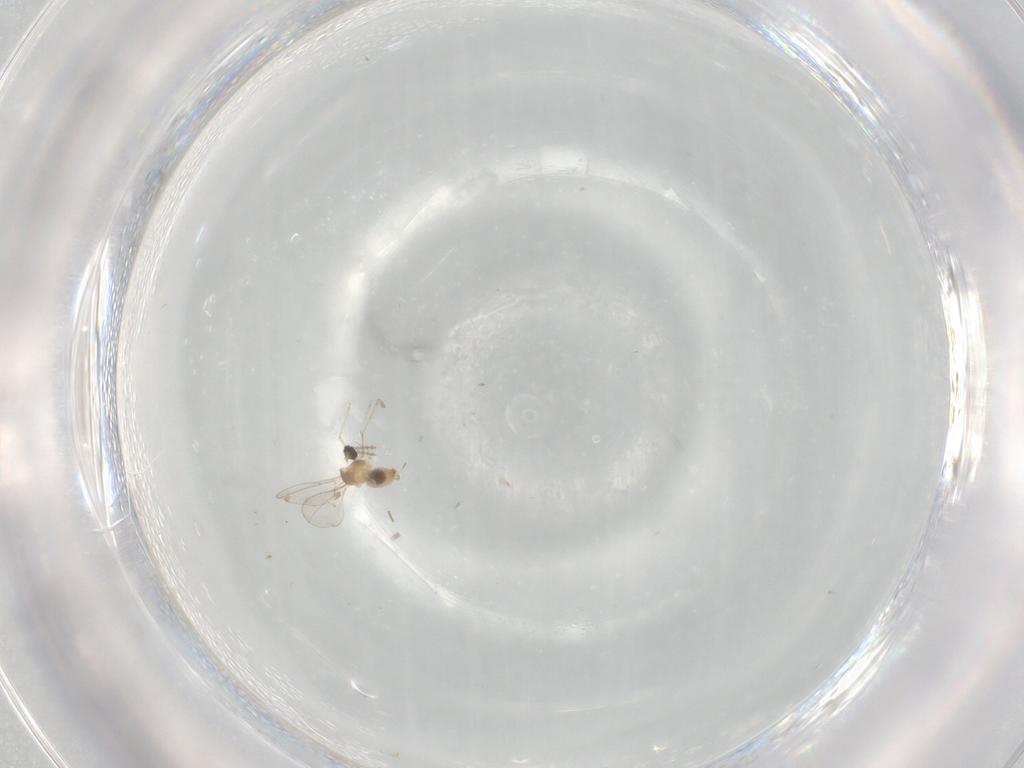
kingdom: Animalia
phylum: Arthropoda
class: Insecta
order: Diptera
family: Cecidomyiidae
